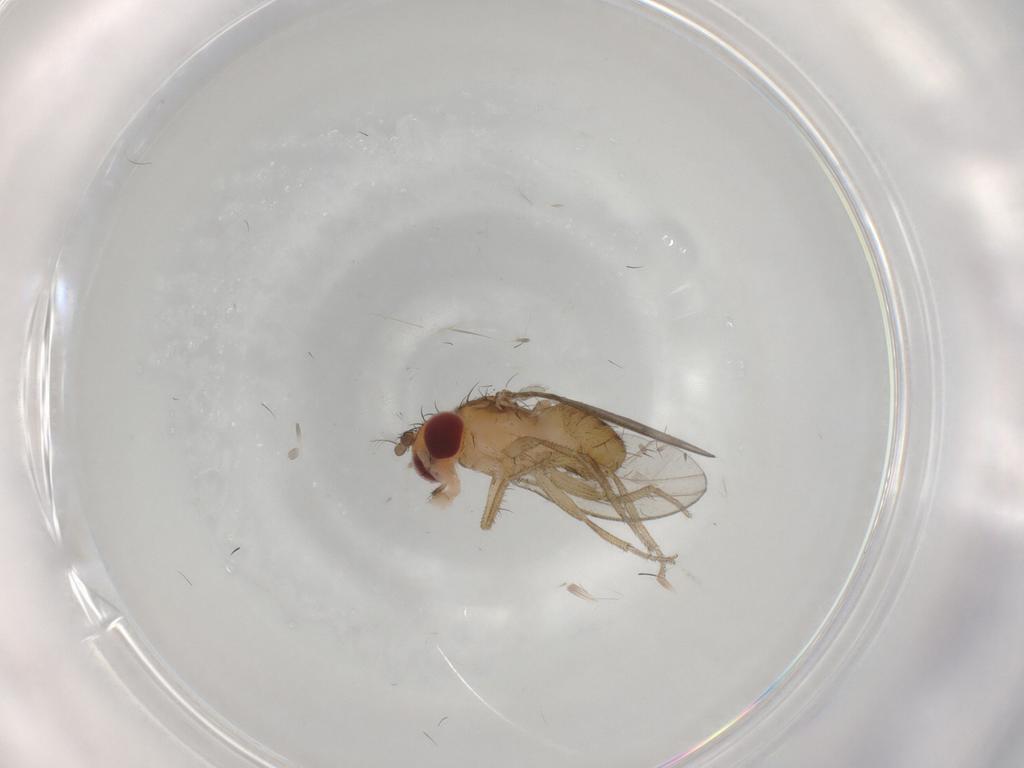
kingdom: Animalia
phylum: Arthropoda
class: Insecta
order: Diptera
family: Drosophilidae
